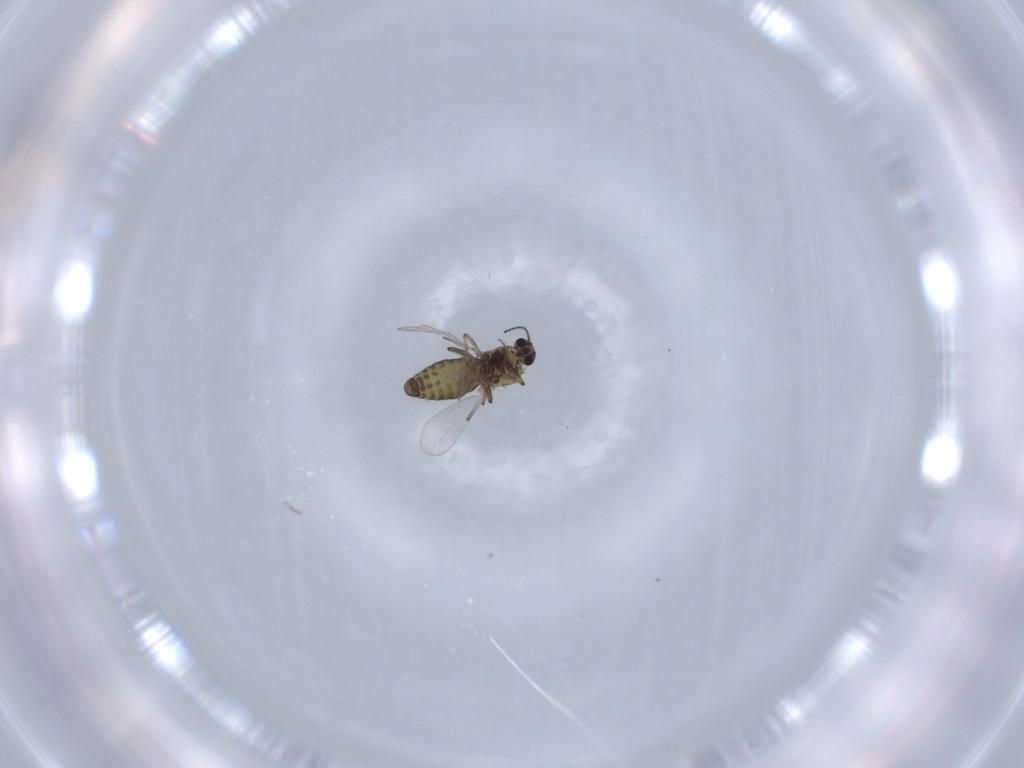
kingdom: Animalia
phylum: Arthropoda
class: Insecta
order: Diptera
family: Ceratopogonidae
